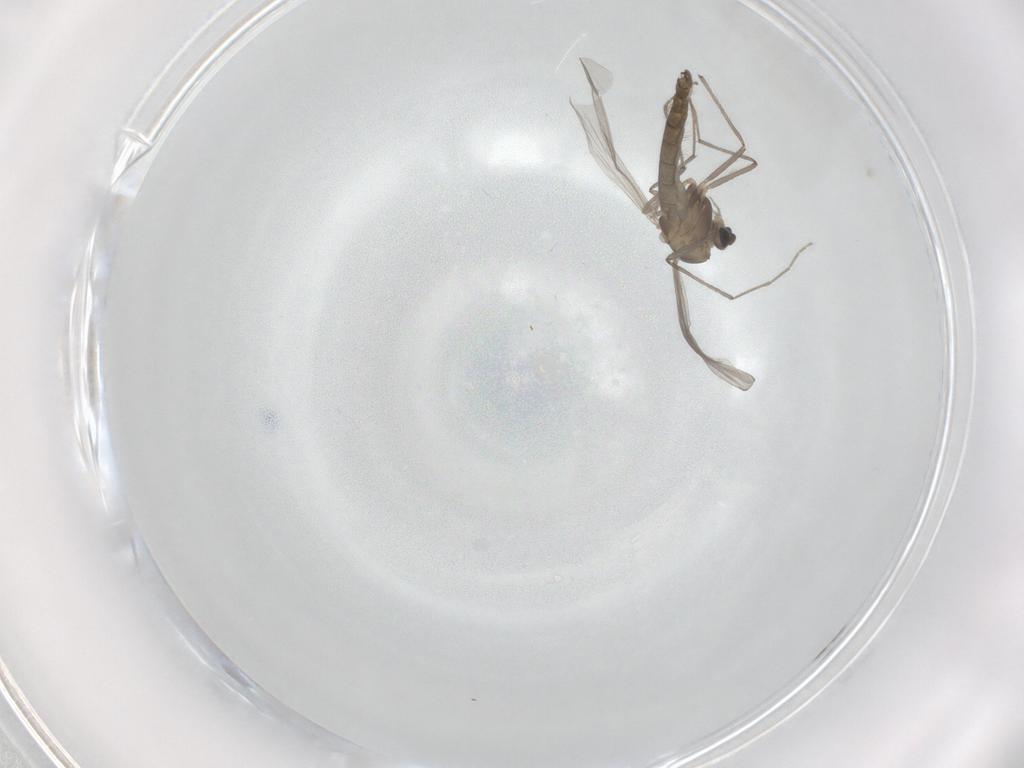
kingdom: Animalia
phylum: Arthropoda
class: Insecta
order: Diptera
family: Chironomidae
